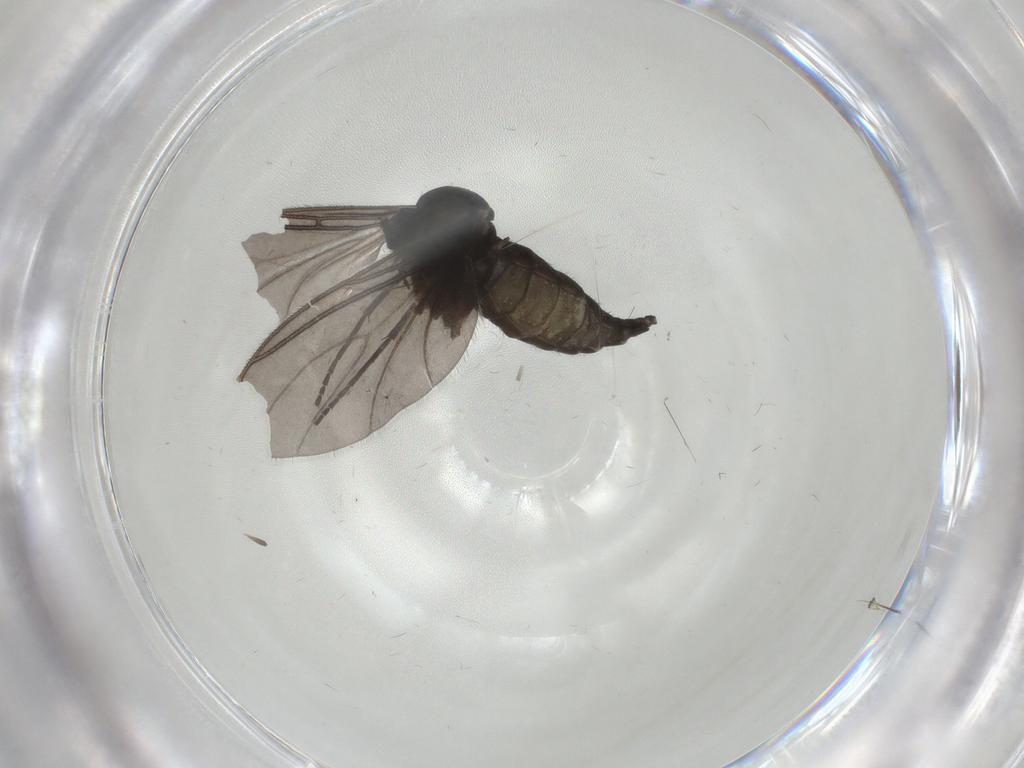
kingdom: Animalia
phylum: Arthropoda
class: Insecta
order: Diptera
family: Sciaridae
